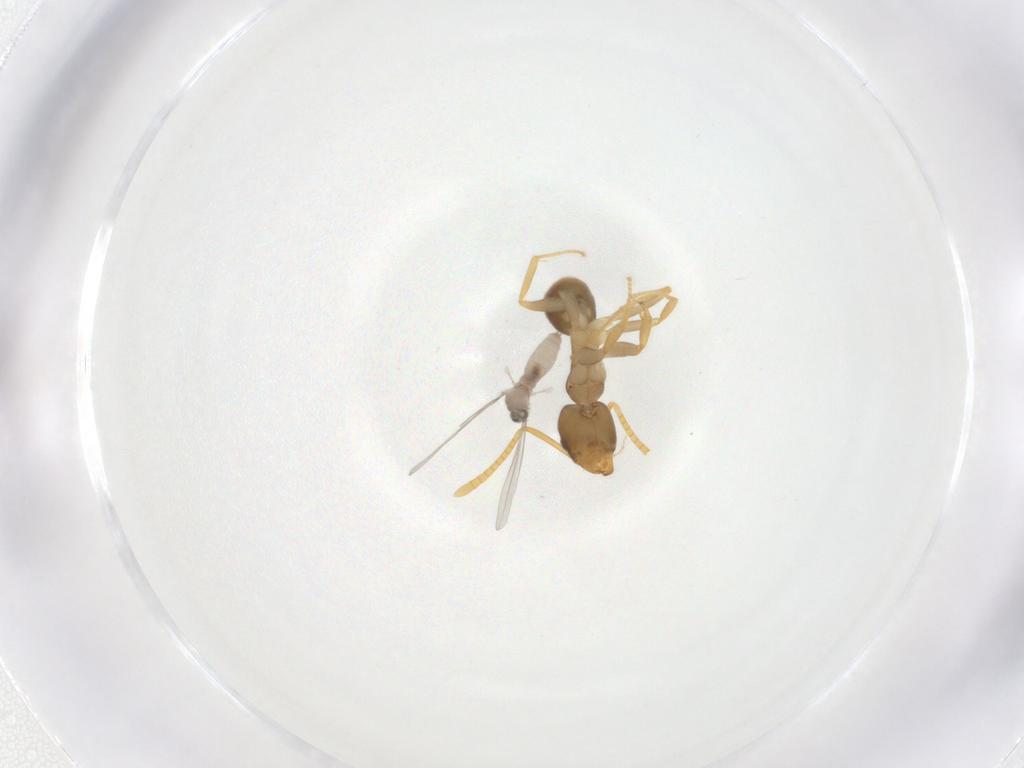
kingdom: Animalia
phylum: Arthropoda
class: Insecta
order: Diptera
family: Cecidomyiidae
